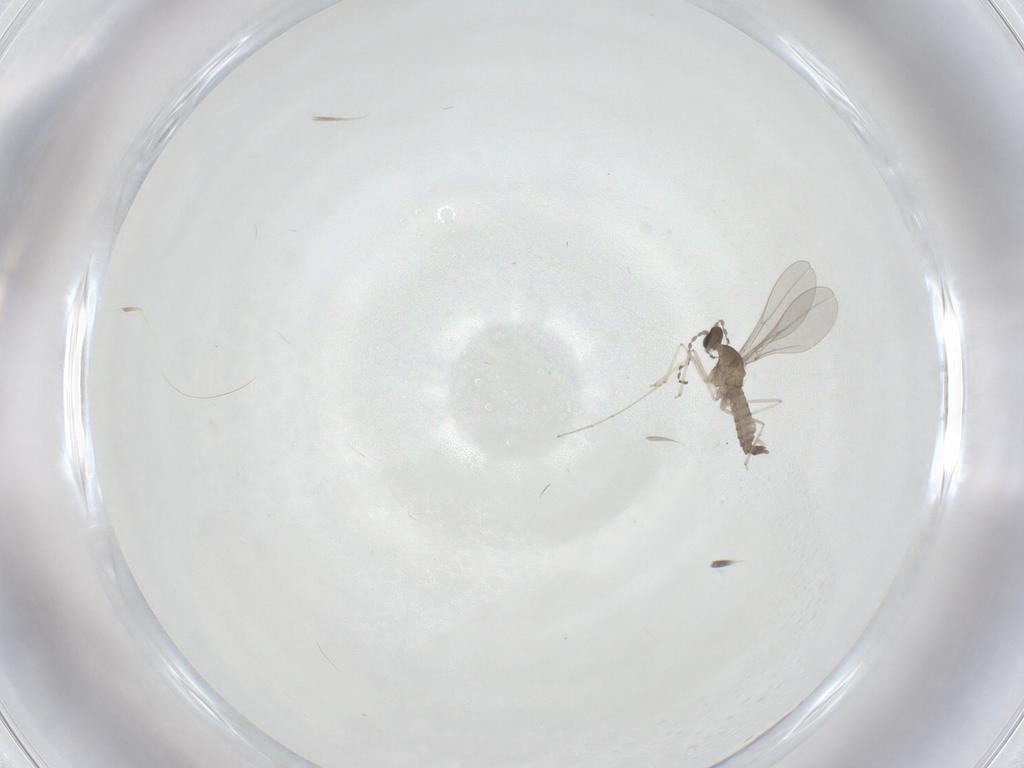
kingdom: Animalia
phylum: Arthropoda
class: Insecta
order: Diptera
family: Cecidomyiidae
